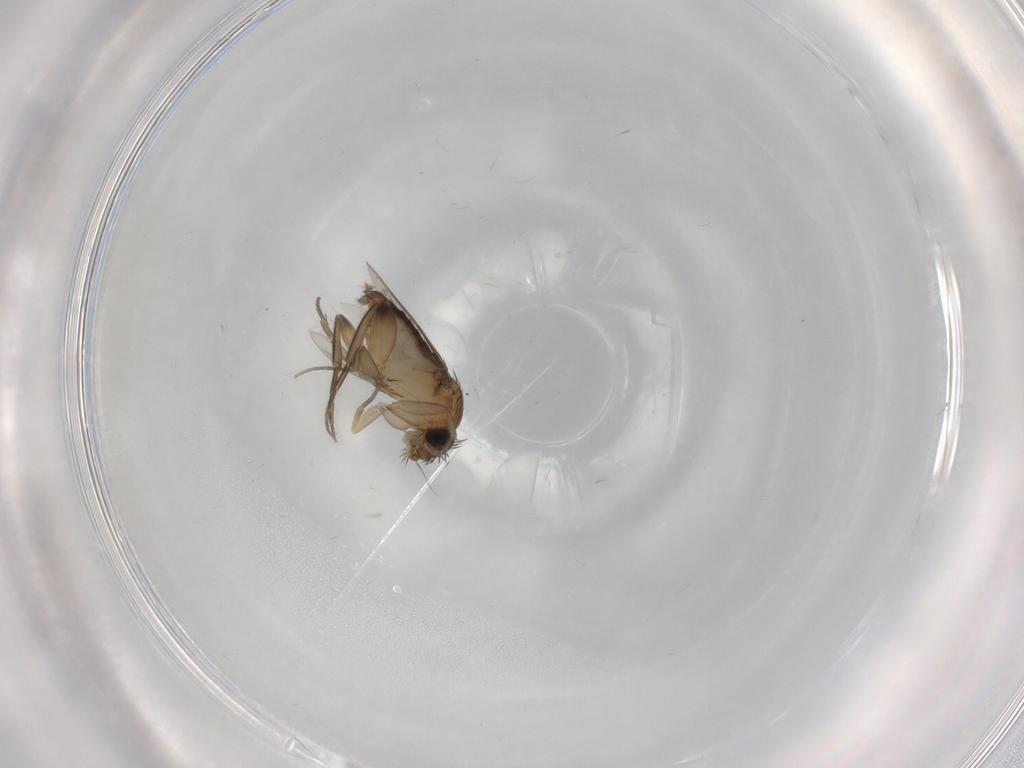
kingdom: Animalia
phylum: Arthropoda
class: Insecta
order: Diptera
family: Phoridae
